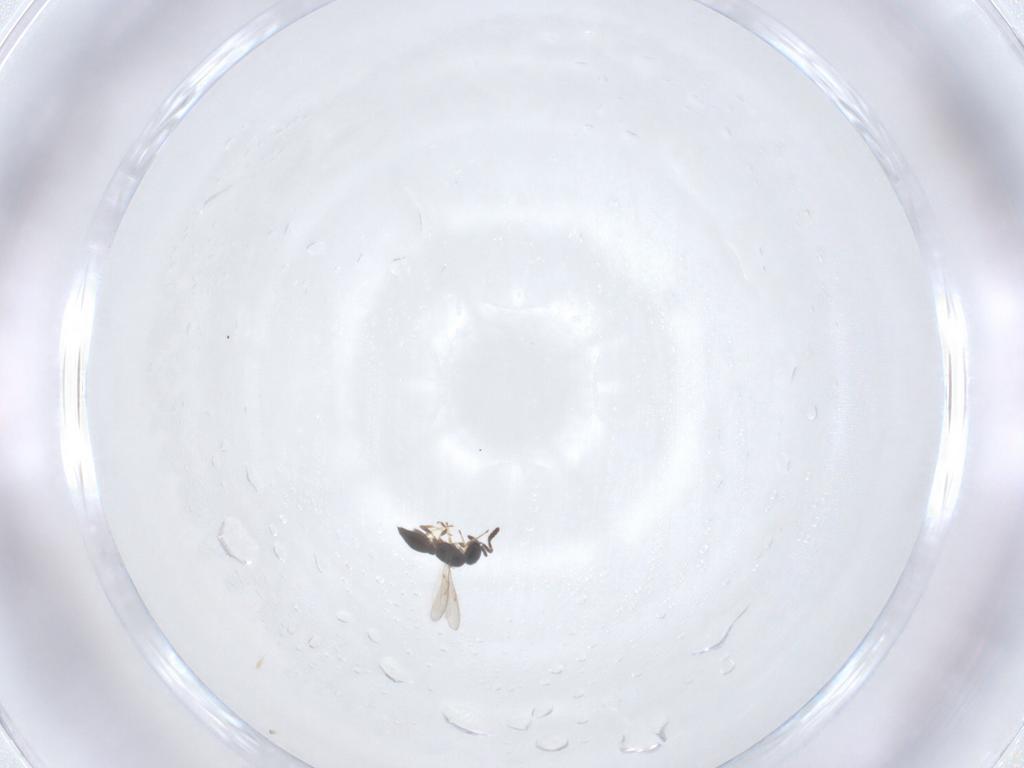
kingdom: Animalia
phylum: Arthropoda
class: Insecta
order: Hymenoptera
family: Scelionidae
